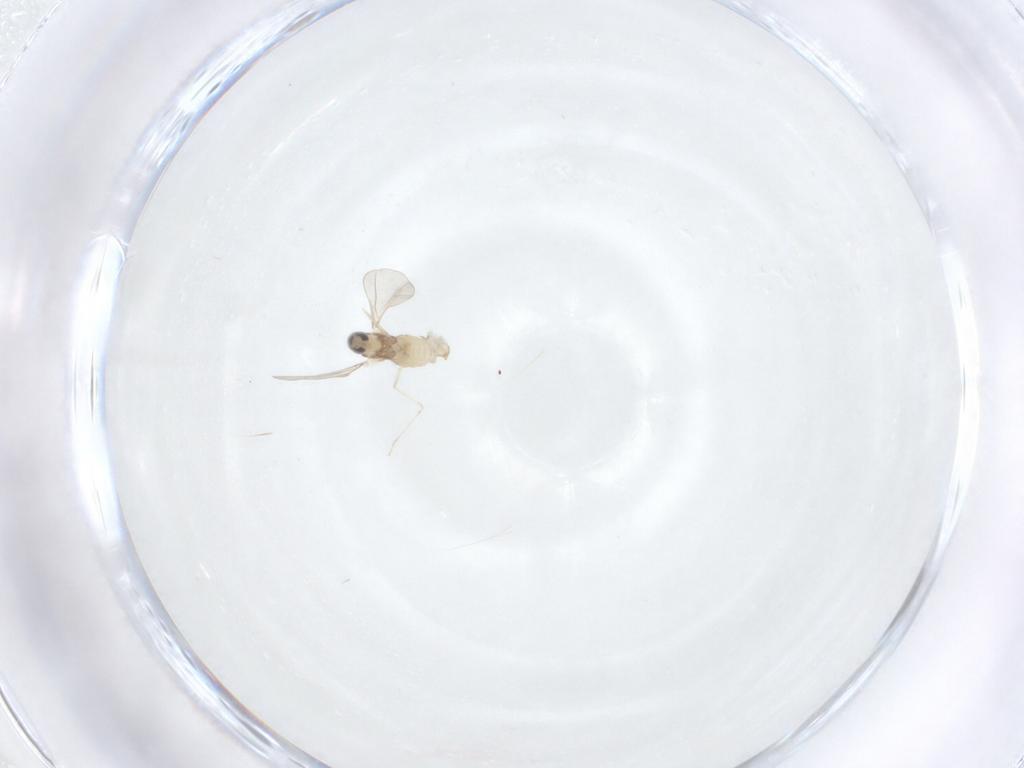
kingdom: Animalia
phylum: Arthropoda
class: Insecta
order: Diptera
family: Cecidomyiidae
